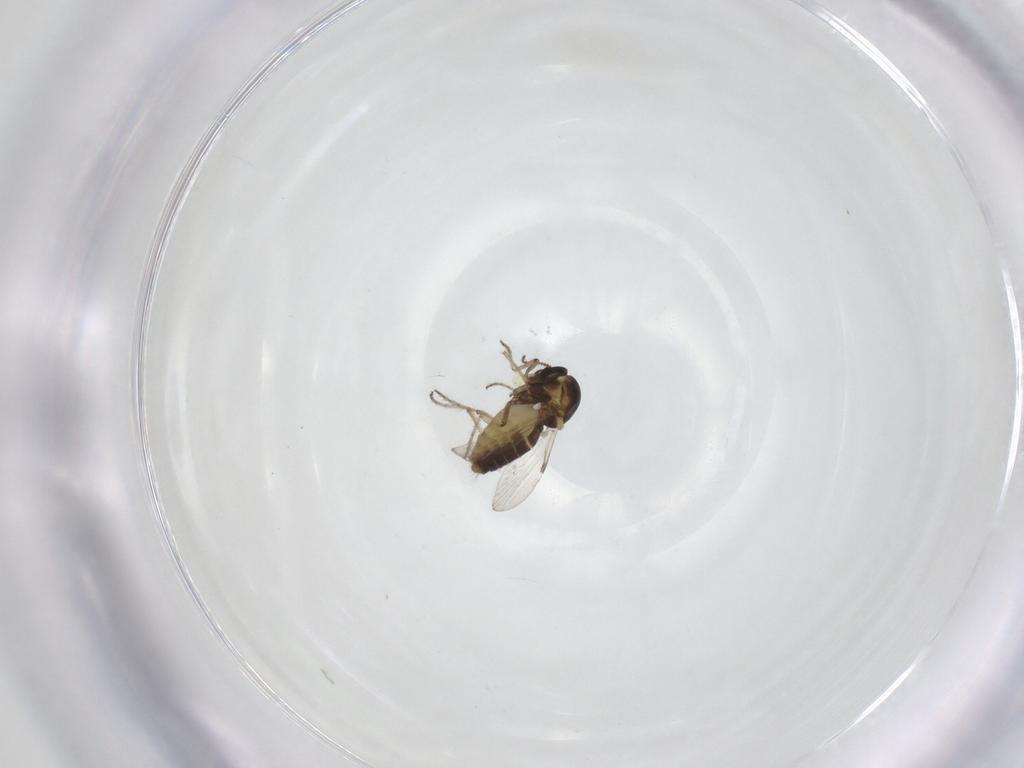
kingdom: Animalia
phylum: Arthropoda
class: Insecta
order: Diptera
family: Ceratopogonidae
